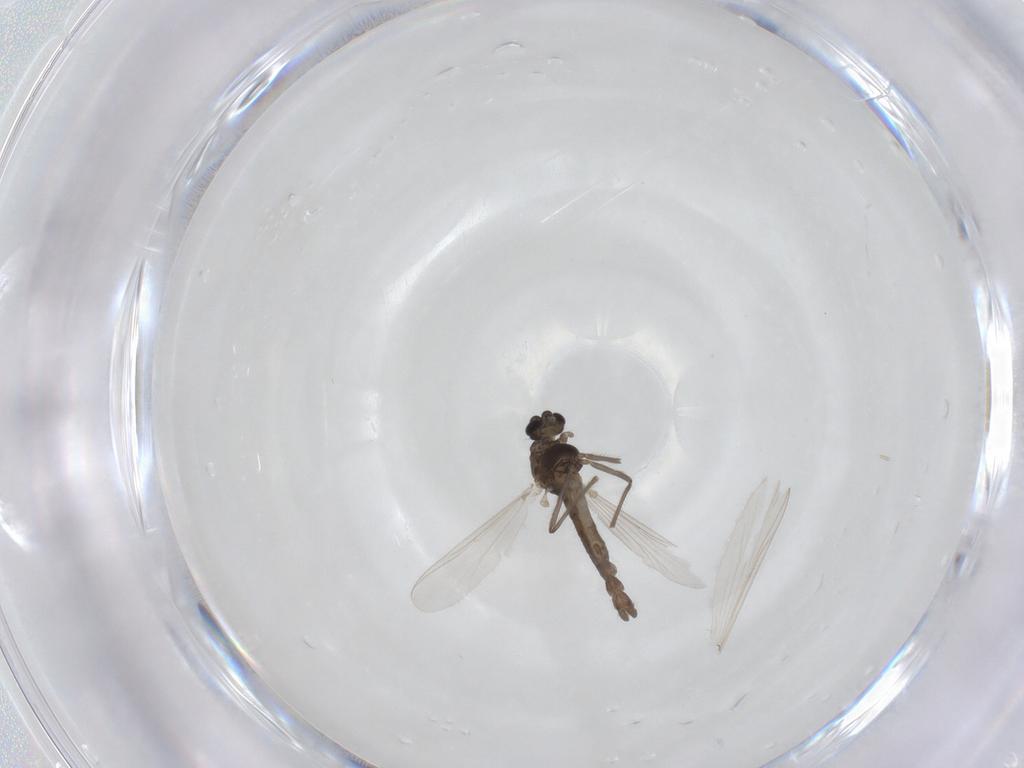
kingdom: Animalia
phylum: Arthropoda
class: Insecta
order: Diptera
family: Chironomidae
